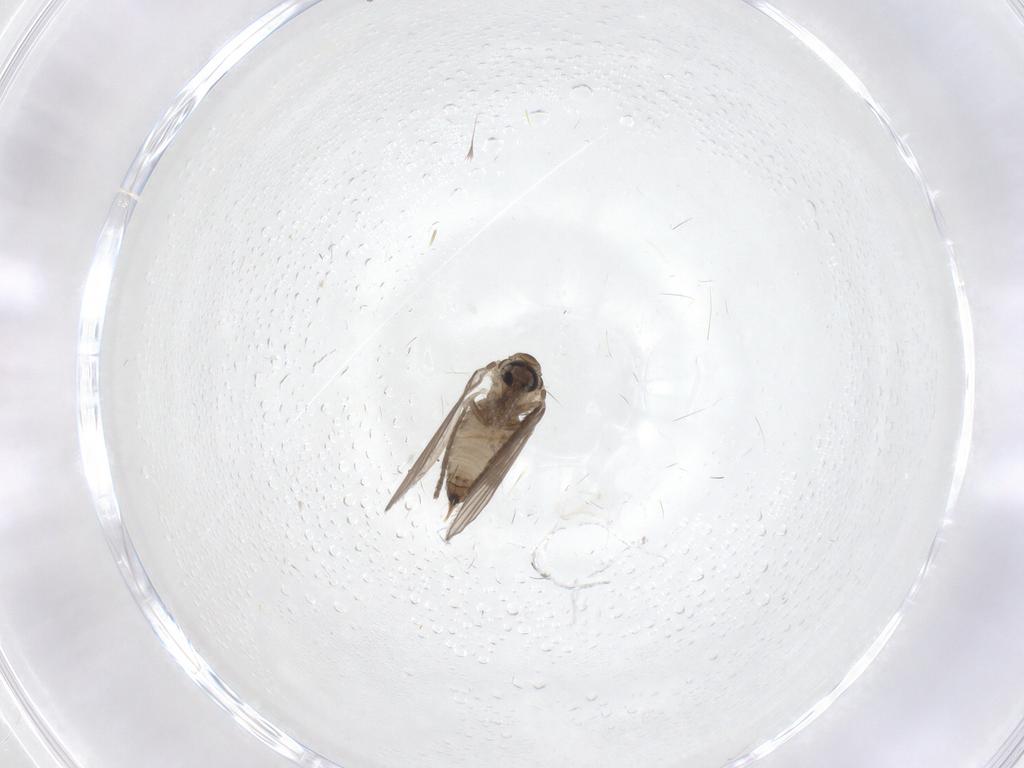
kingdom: Animalia
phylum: Arthropoda
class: Insecta
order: Diptera
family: Psychodidae
